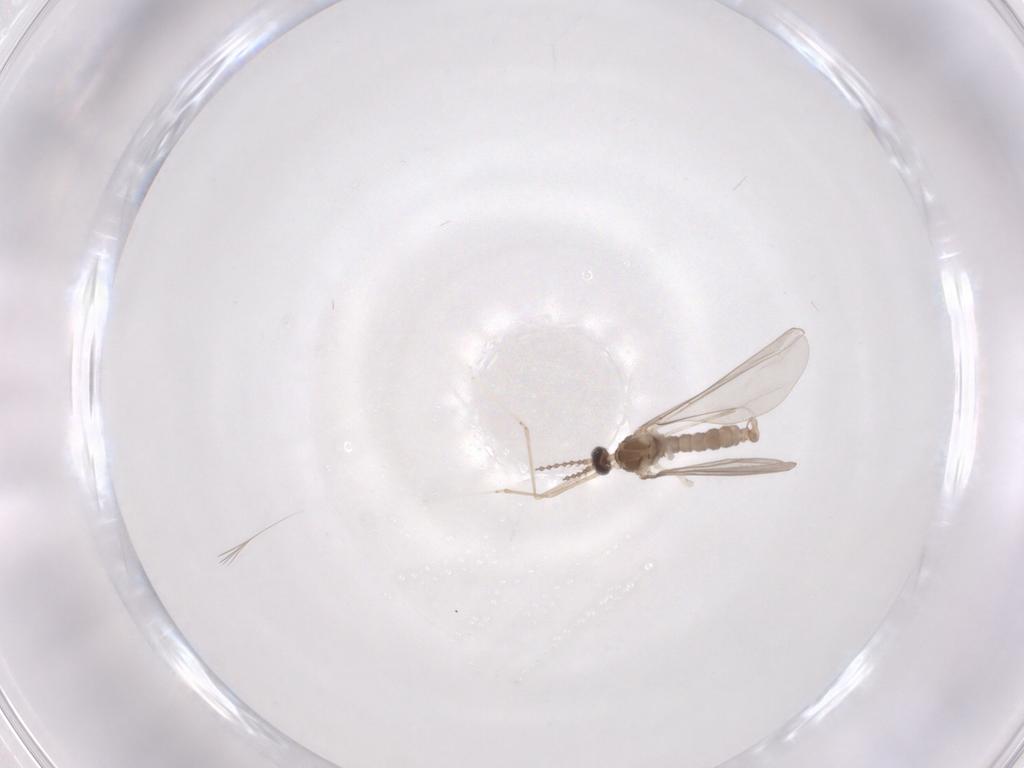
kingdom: Animalia
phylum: Arthropoda
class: Insecta
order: Diptera
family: Cecidomyiidae
